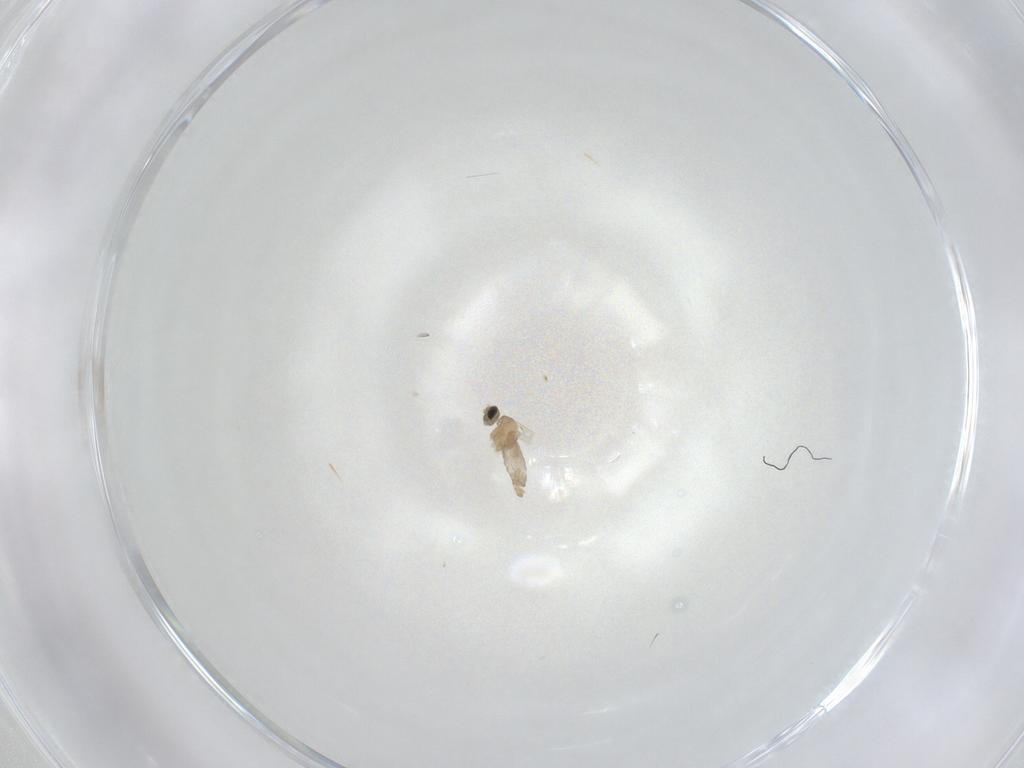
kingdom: Animalia
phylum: Arthropoda
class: Insecta
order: Diptera
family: Cecidomyiidae
